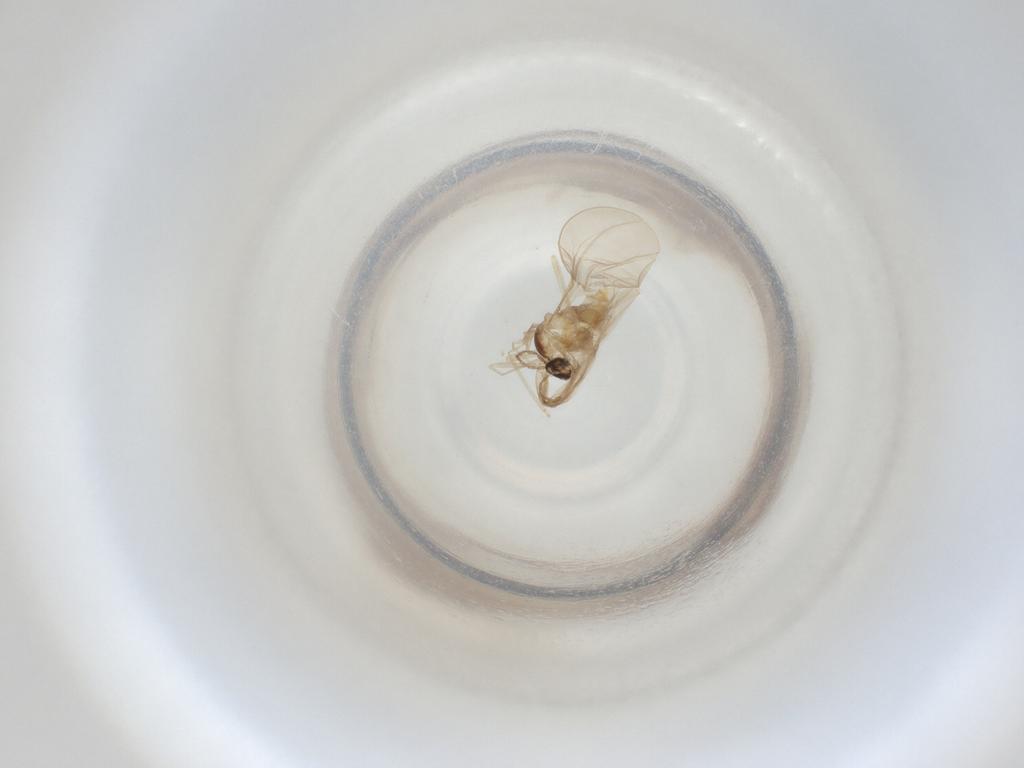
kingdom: Animalia
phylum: Arthropoda
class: Insecta
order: Diptera
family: Cecidomyiidae
